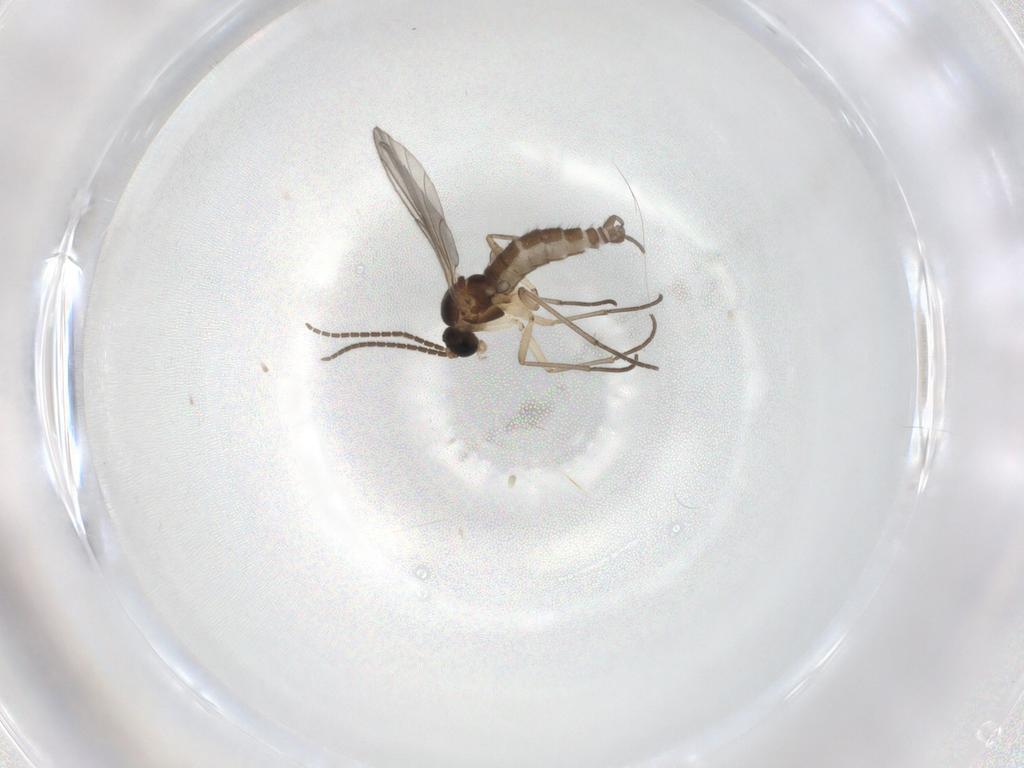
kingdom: Animalia
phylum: Arthropoda
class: Insecta
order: Diptera
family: Sciaridae
